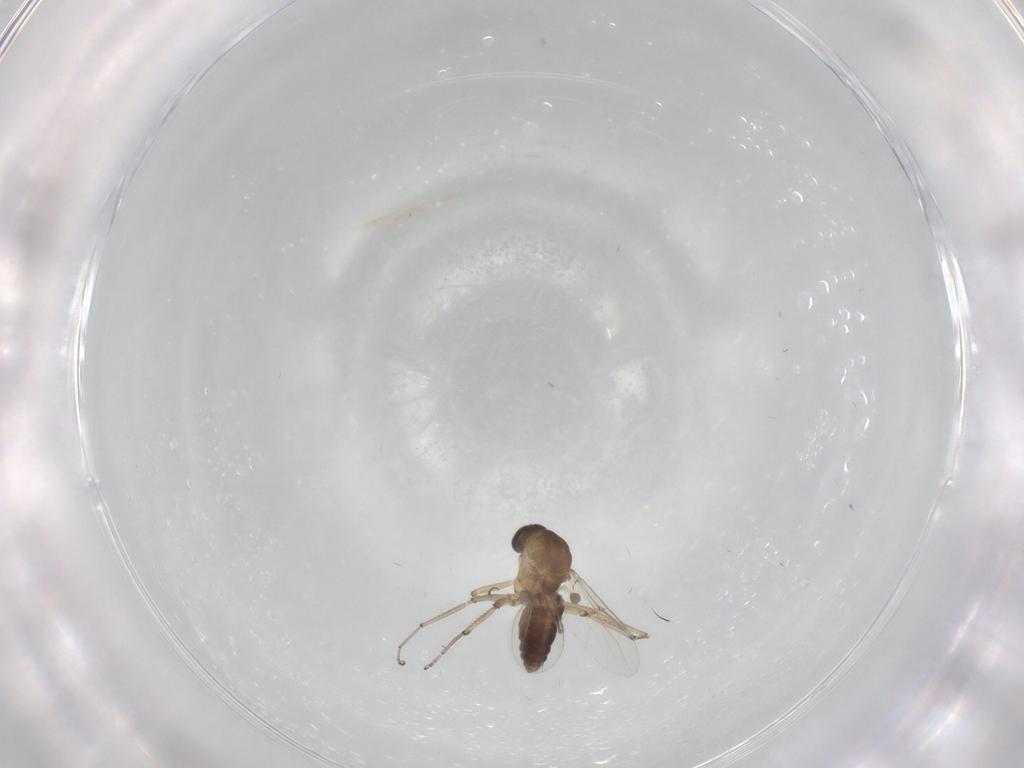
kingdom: Animalia
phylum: Arthropoda
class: Insecta
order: Diptera
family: Ceratopogonidae
